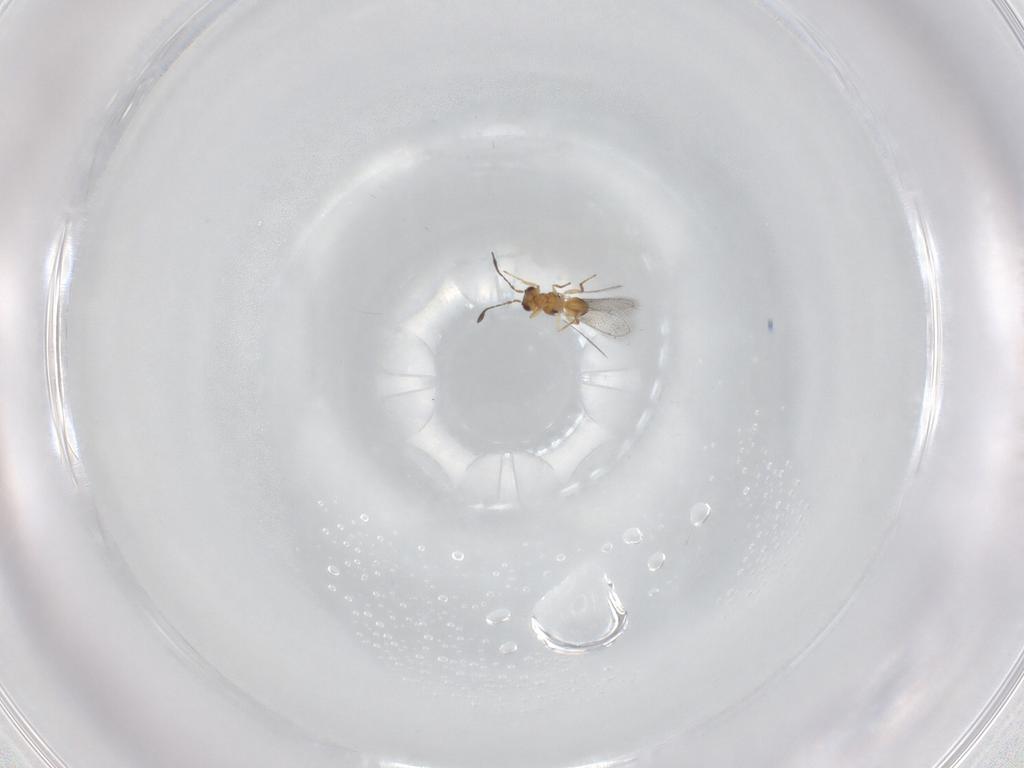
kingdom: Animalia
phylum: Arthropoda
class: Insecta
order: Hymenoptera
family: Mymaridae
